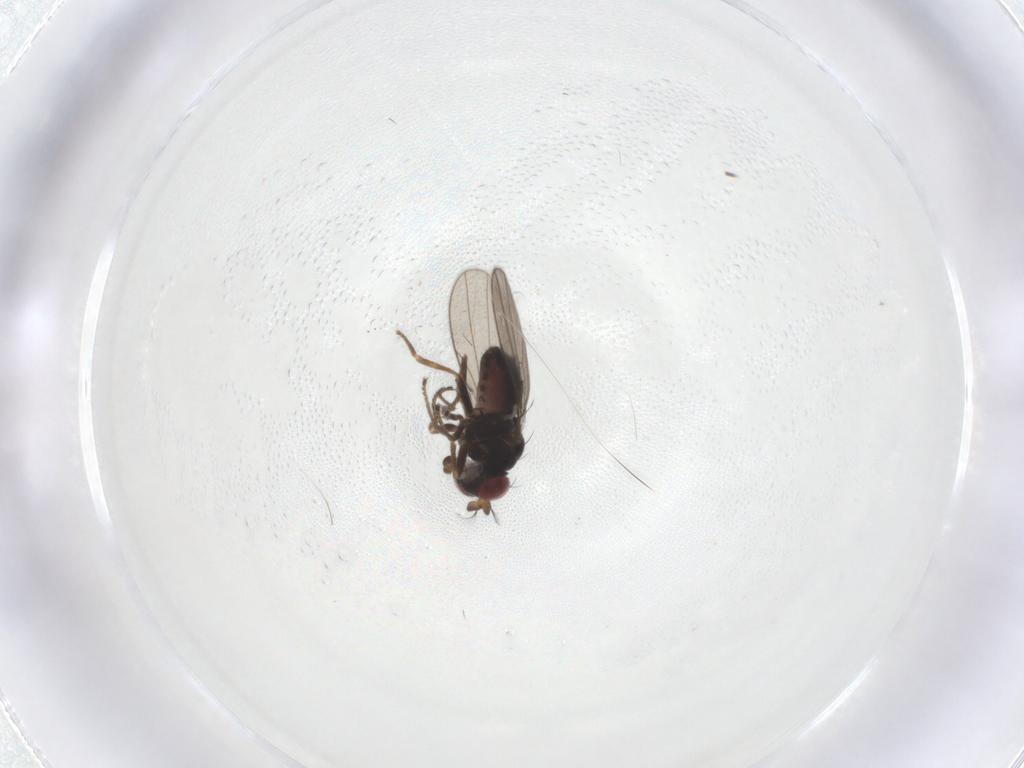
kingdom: Animalia
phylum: Arthropoda
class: Insecta
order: Diptera
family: Ephydridae
